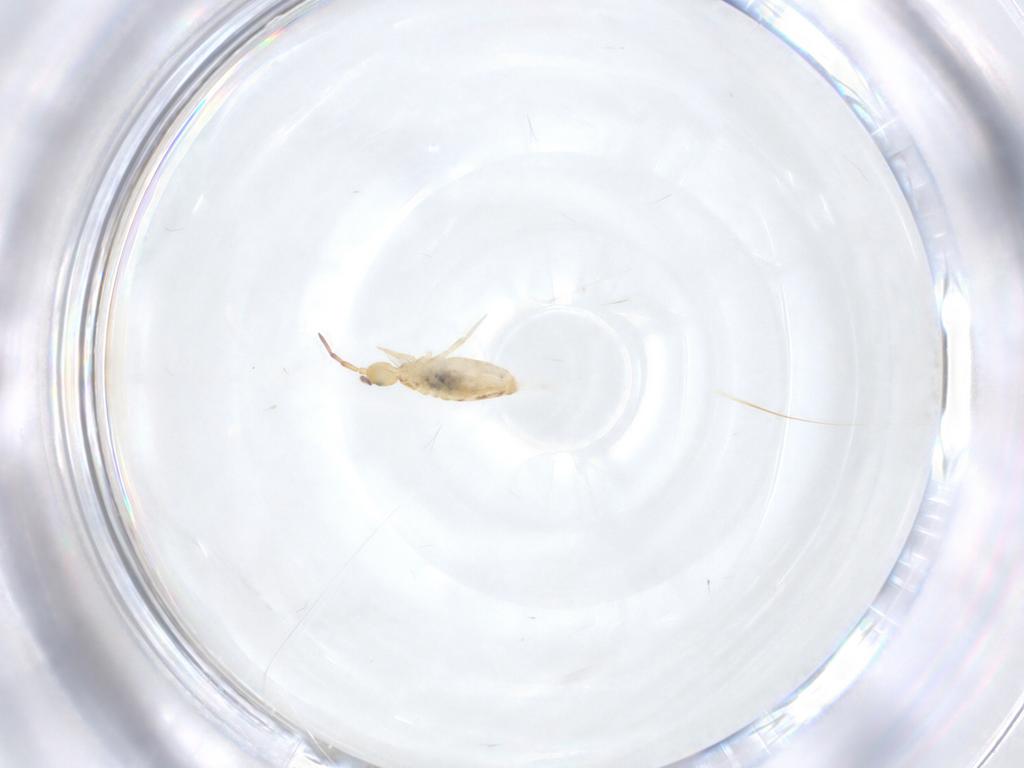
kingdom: Animalia
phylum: Arthropoda
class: Collembola
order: Entomobryomorpha
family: Entomobryidae
